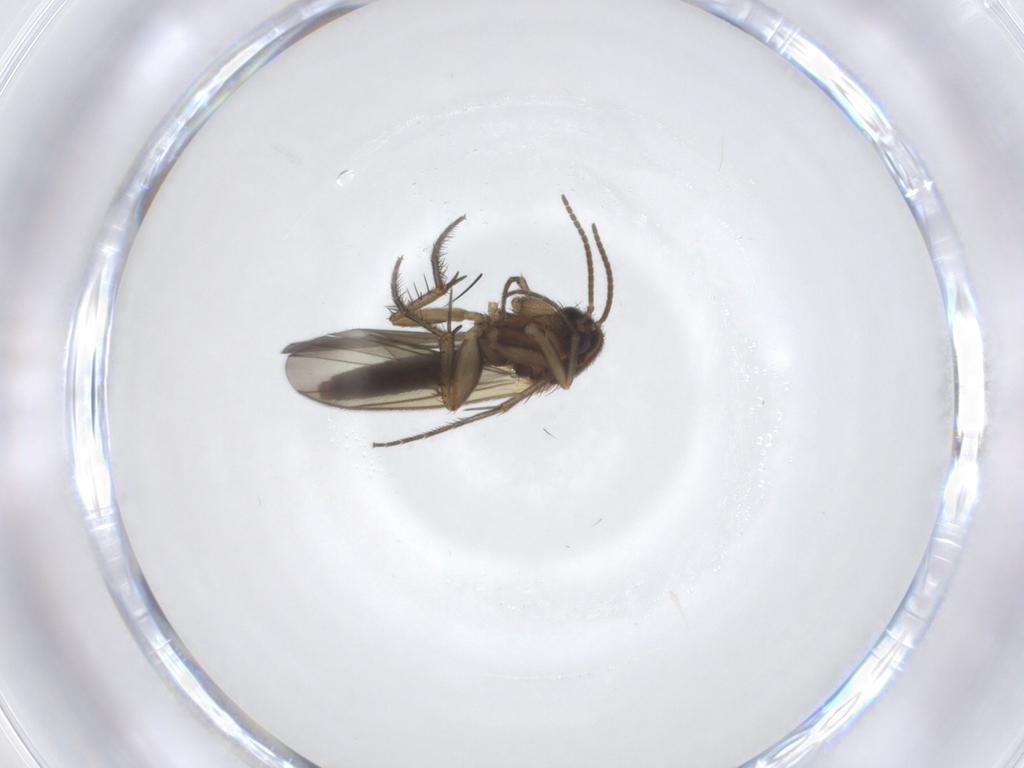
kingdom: Animalia
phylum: Arthropoda
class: Insecta
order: Diptera
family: Mycetophilidae
